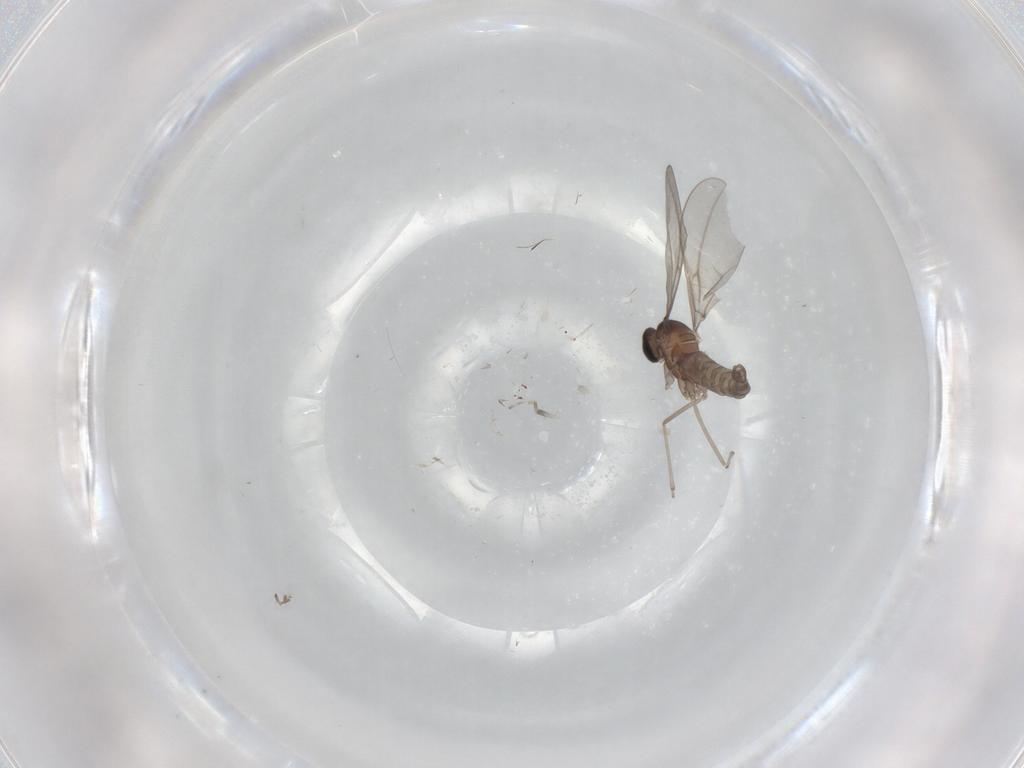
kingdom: Animalia
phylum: Arthropoda
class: Insecta
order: Diptera
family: Cecidomyiidae
